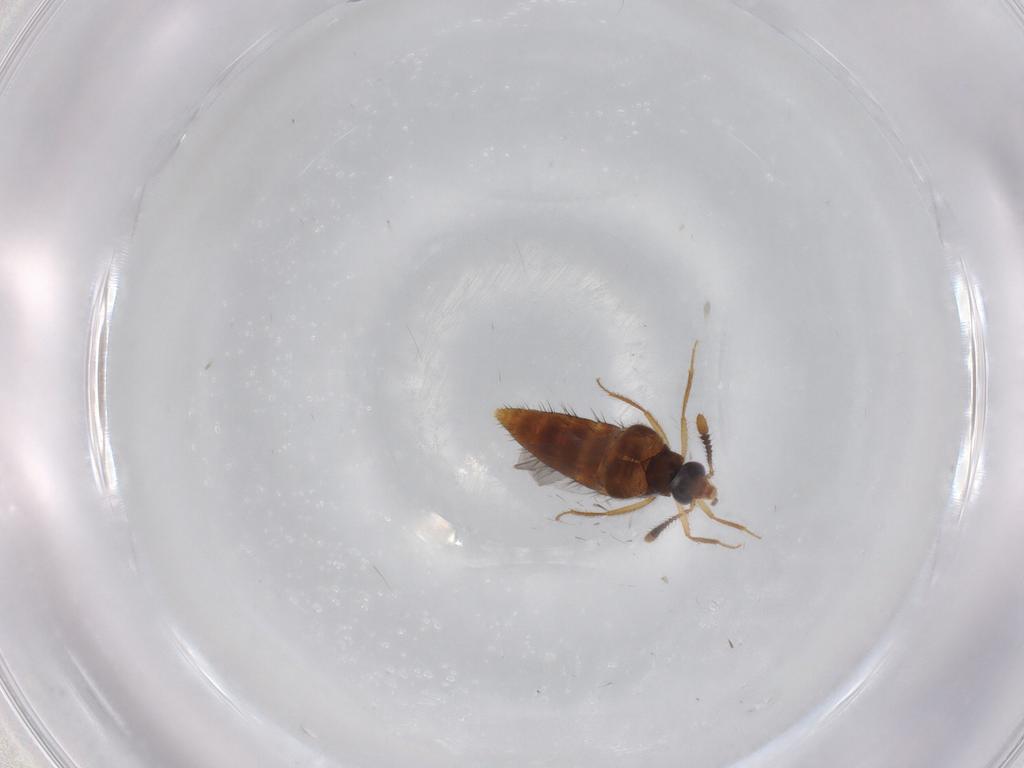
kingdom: Animalia
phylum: Arthropoda
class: Insecta
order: Coleoptera
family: Staphylinidae
